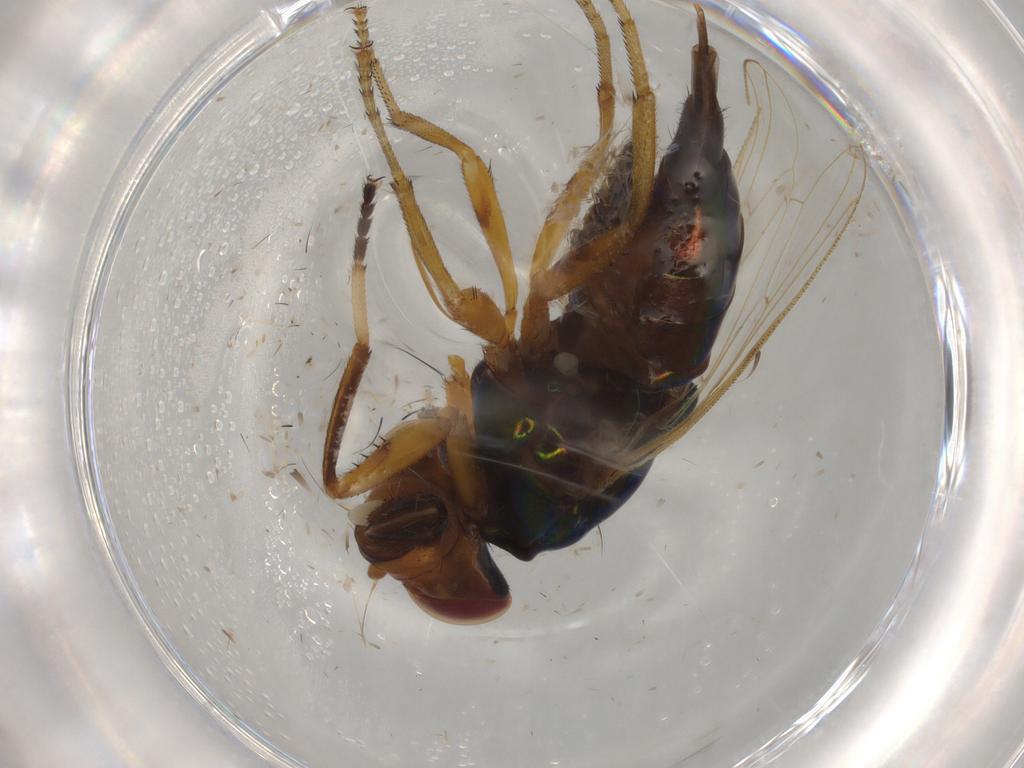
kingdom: Animalia
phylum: Arthropoda
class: Insecta
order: Diptera
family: Ulidiidae
